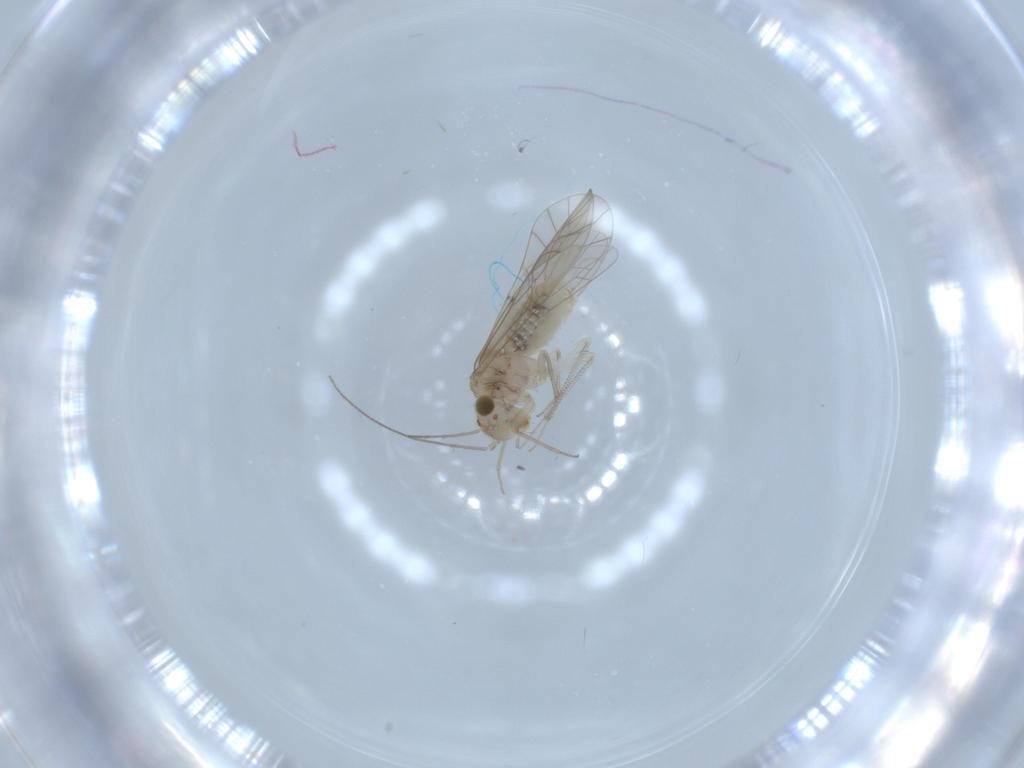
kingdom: Animalia
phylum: Arthropoda
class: Insecta
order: Psocodea
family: Lachesillidae
